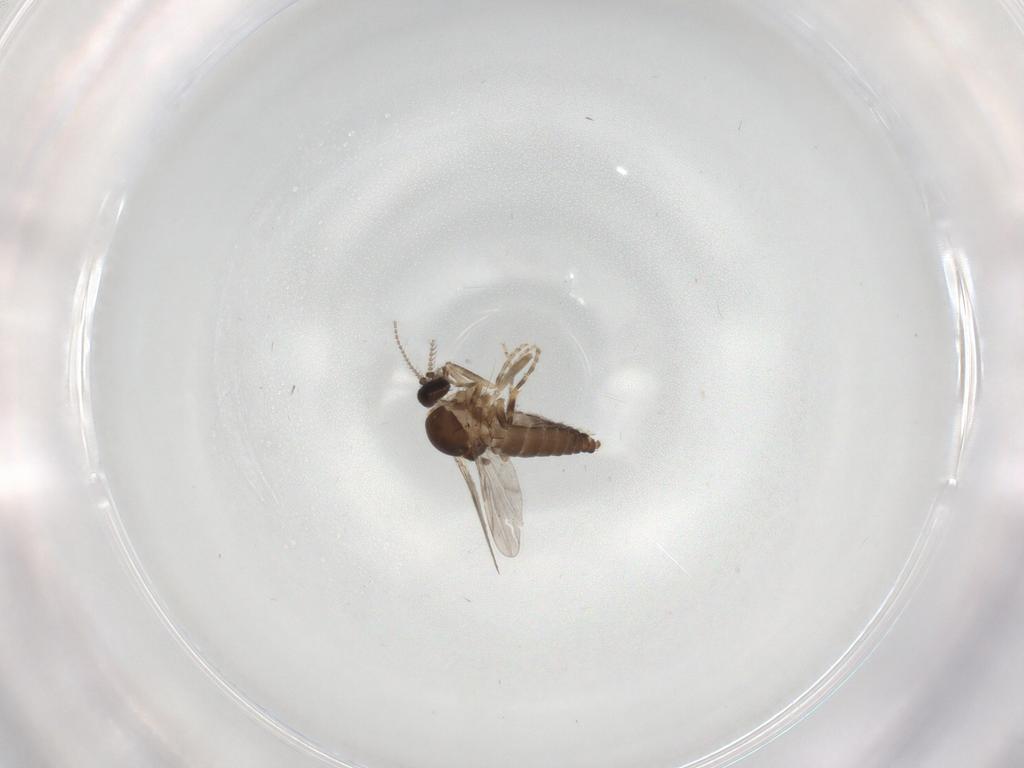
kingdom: Animalia
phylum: Arthropoda
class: Insecta
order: Diptera
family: Ceratopogonidae
